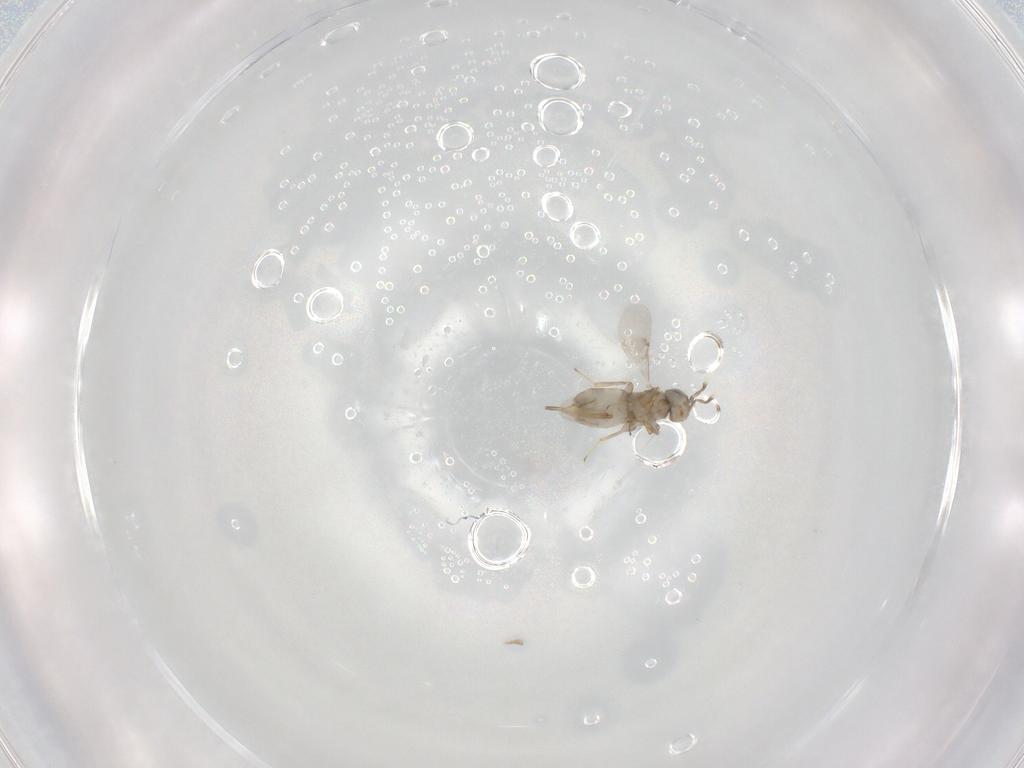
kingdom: Animalia
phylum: Arthropoda
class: Insecta
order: Hymenoptera
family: Encyrtidae
